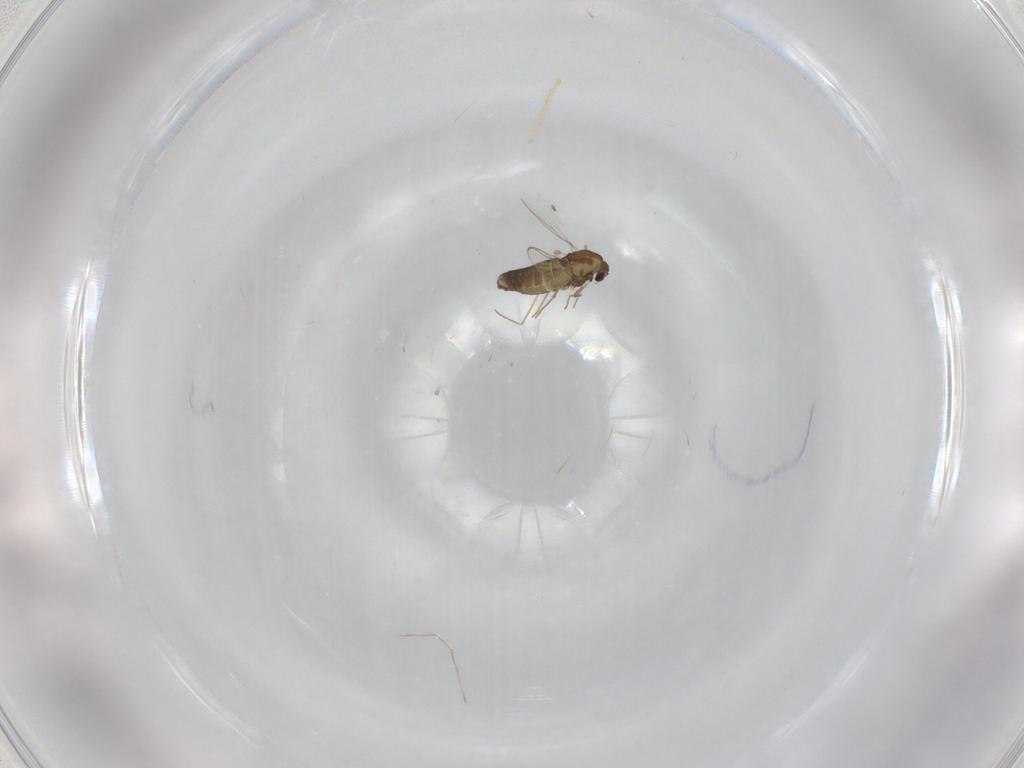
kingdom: Animalia
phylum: Arthropoda
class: Insecta
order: Diptera
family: Chironomidae
